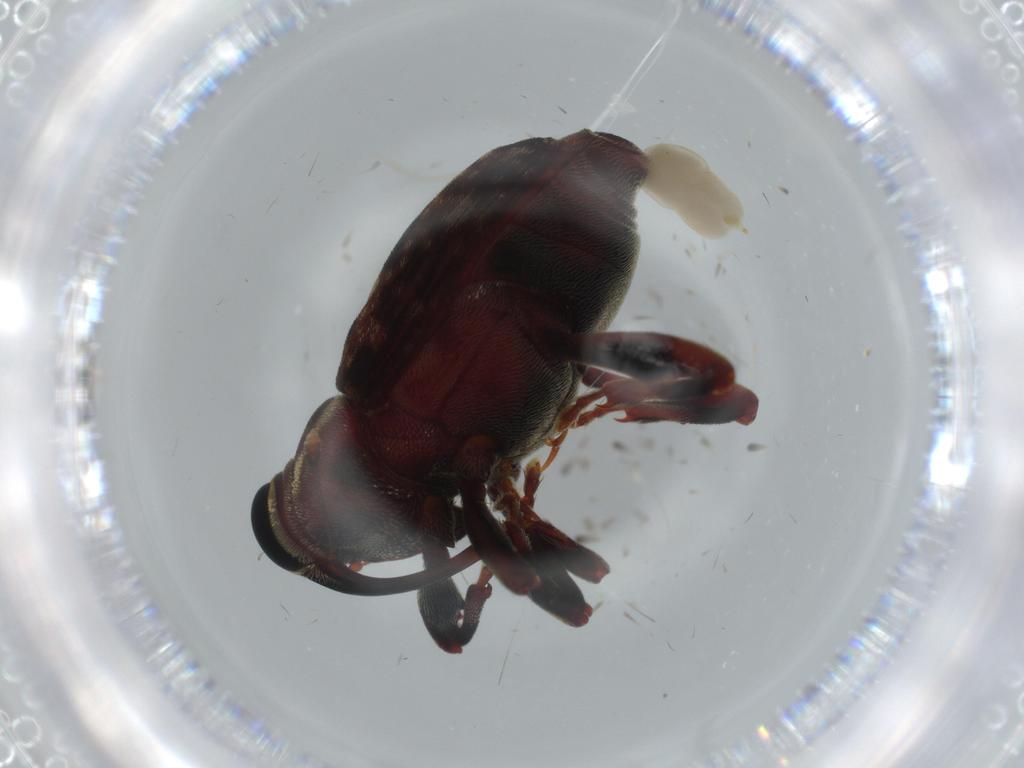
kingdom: Animalia
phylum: Arthropoda
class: Insecta
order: Coleoptera
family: Curculionidae
